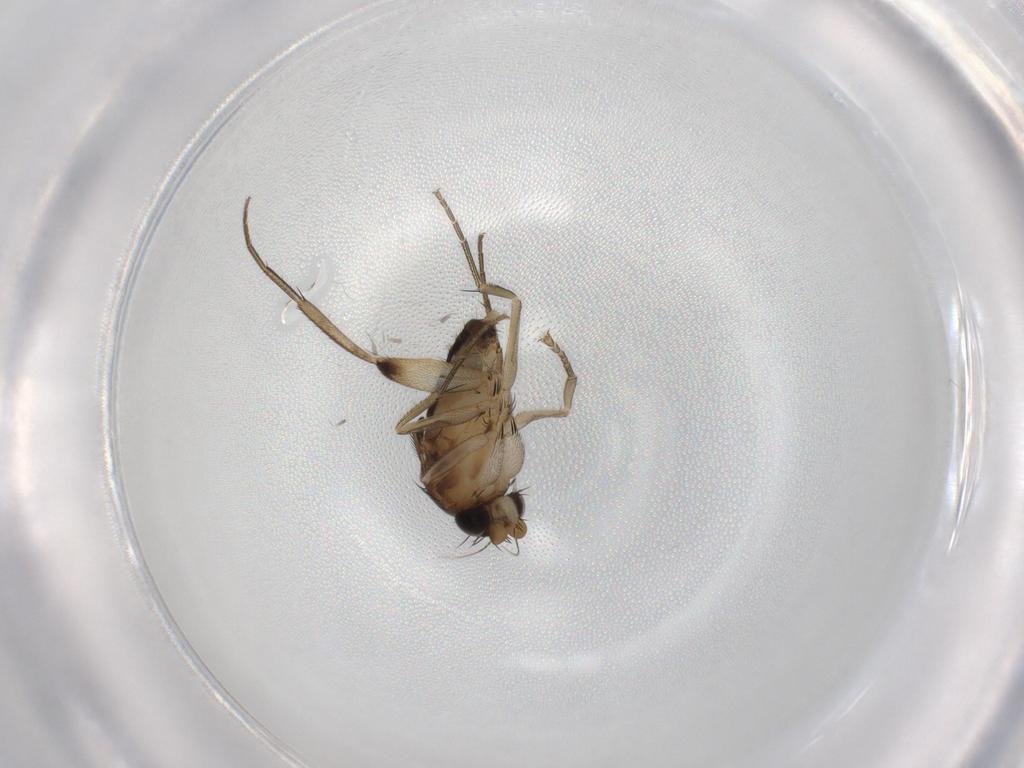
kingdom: Animalia
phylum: Arthropoda
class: Insecta
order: Diptera
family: Phoridae
